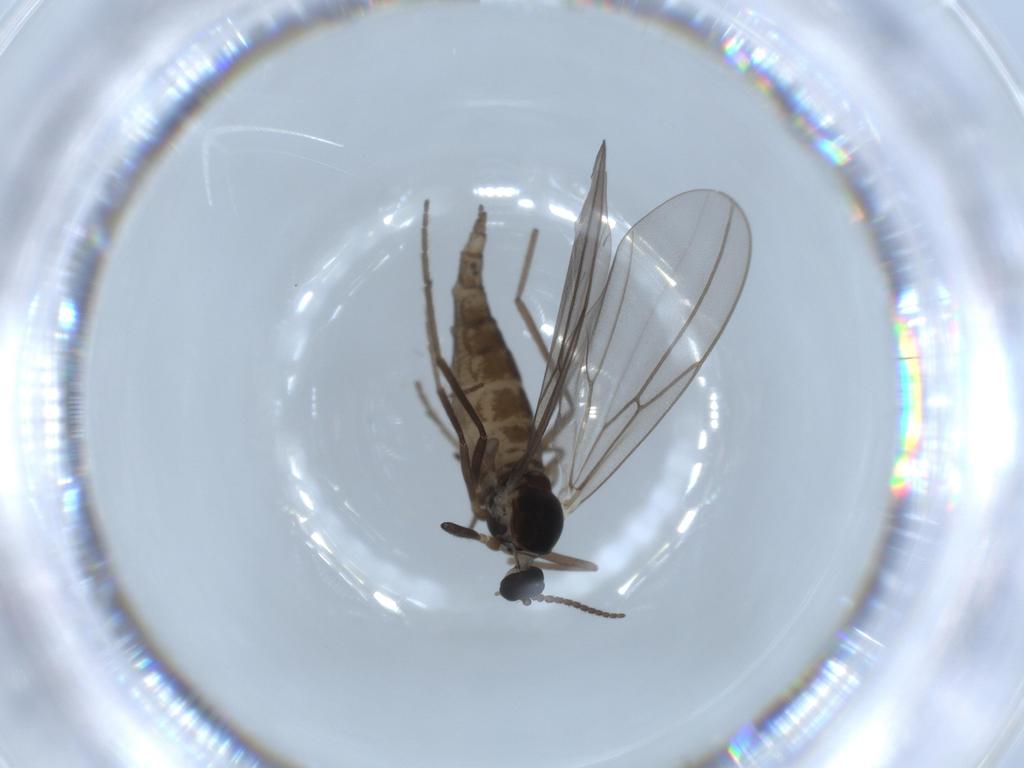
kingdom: Animalia
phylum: Arthropoda
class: Insecta
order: Diptera
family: Cecidomyiidae
